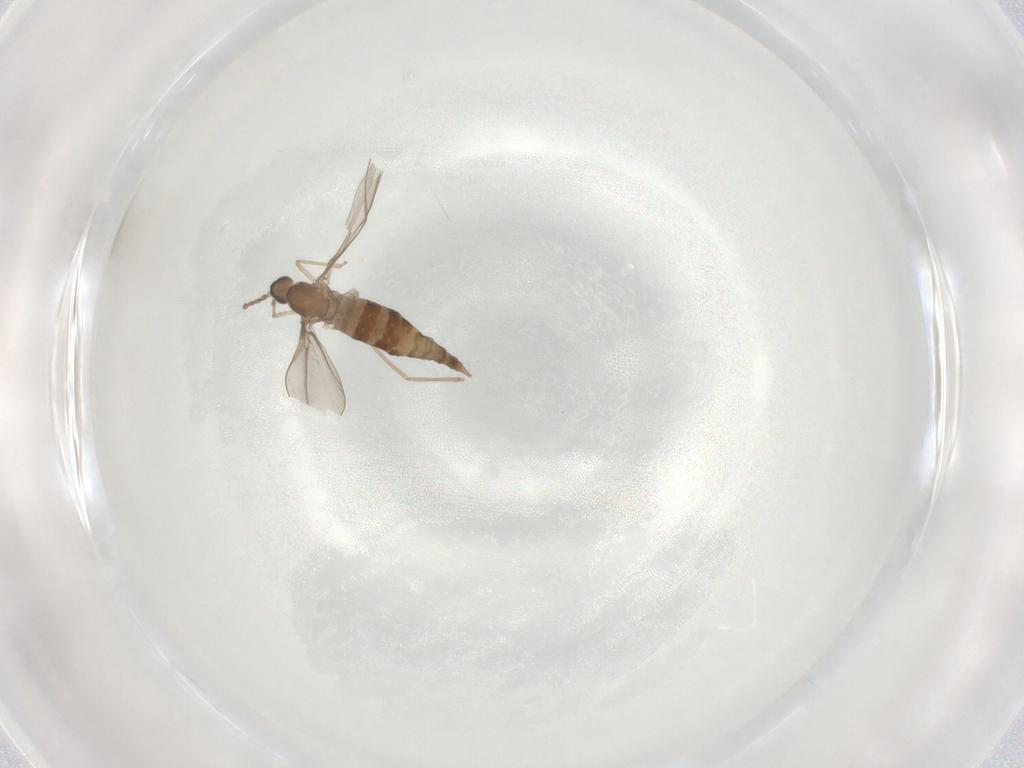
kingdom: Animalia
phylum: Arthropoda
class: Insecta
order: Diptera
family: Cecidomyiidae
